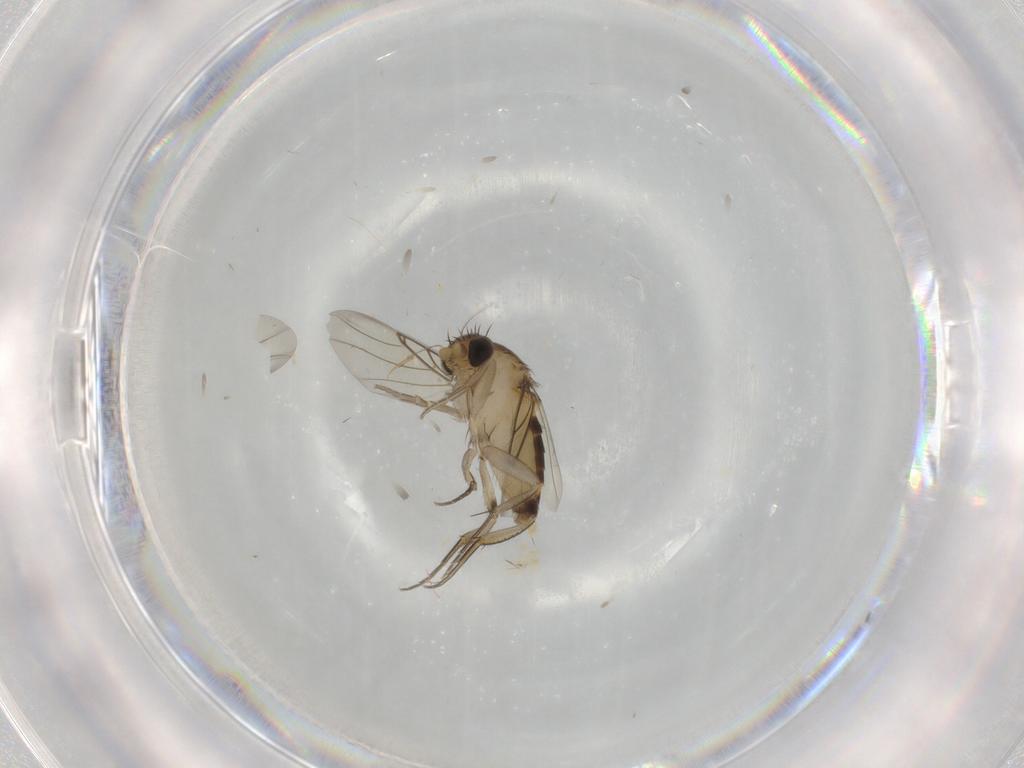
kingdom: Animalia
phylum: Arthropoda
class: Insecta
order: Diptera
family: Phoridae
